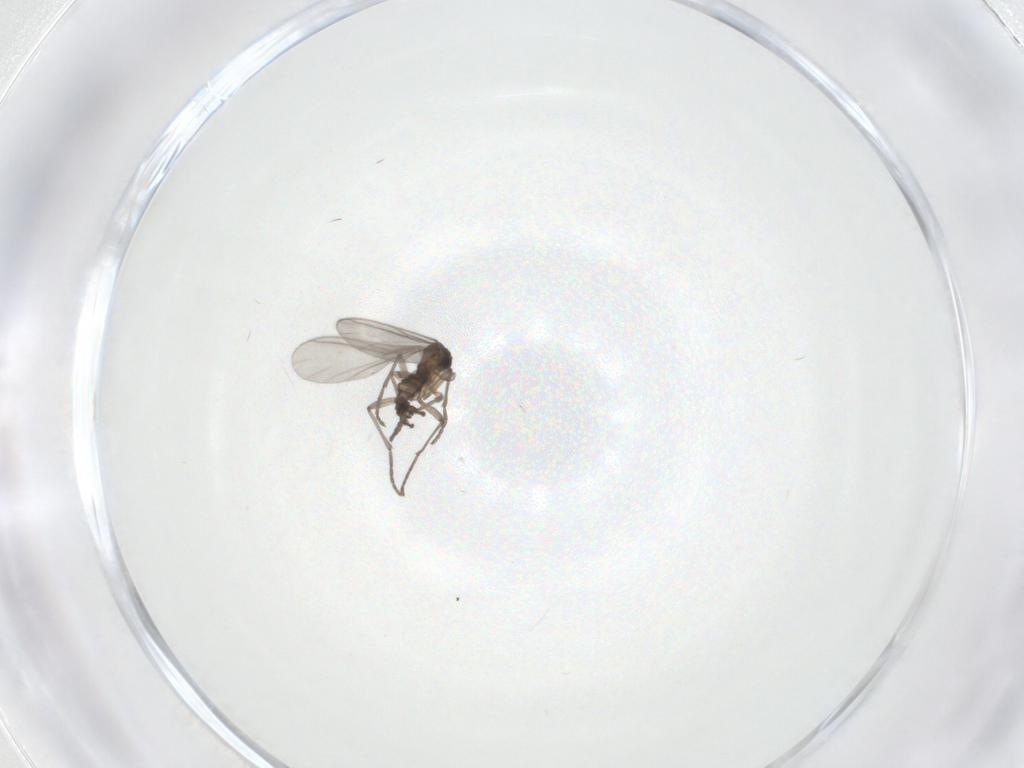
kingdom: Animalia
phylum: Arthropoda
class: Insecta
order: Diptera
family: Sciaridae
